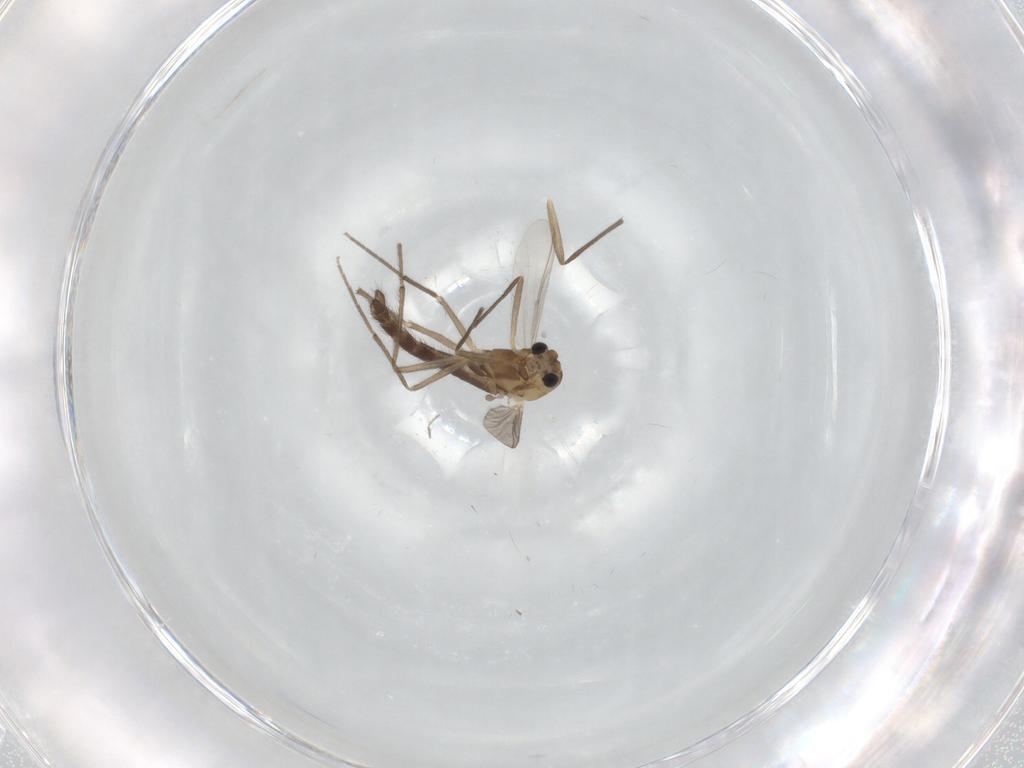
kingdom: Animalia
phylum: Arthropoda
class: Insecta
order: Diptera
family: Chironomidae
